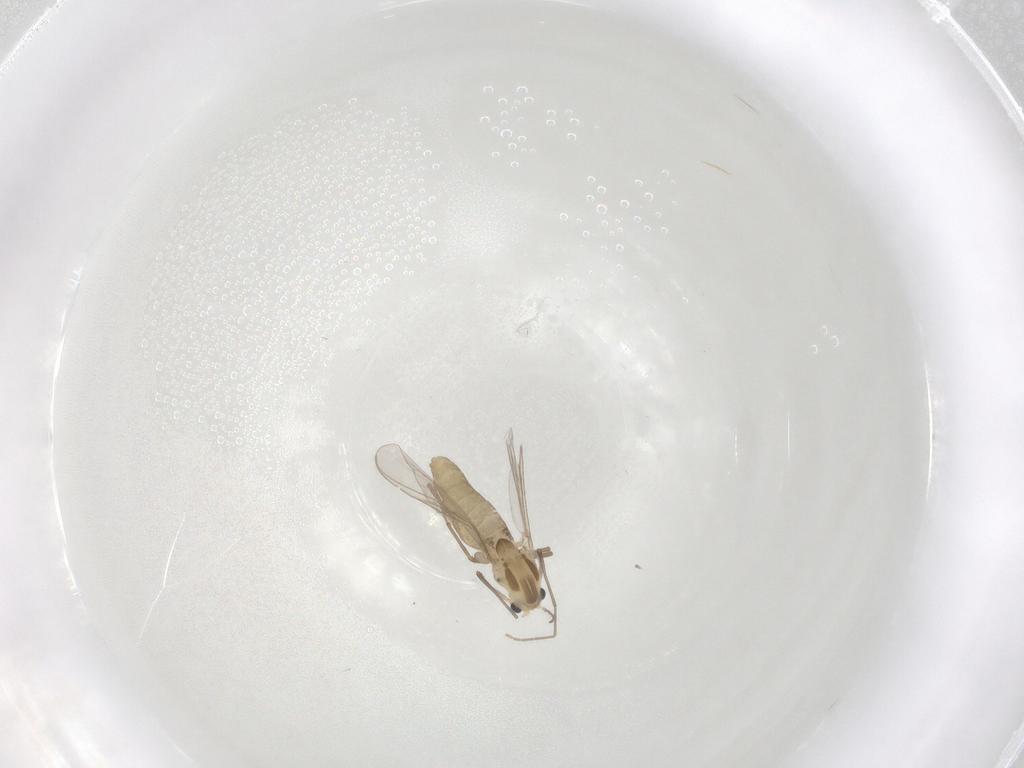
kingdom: Animalia
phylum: Arthropoda
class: Insecta
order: Diptera
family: Chironomidae
